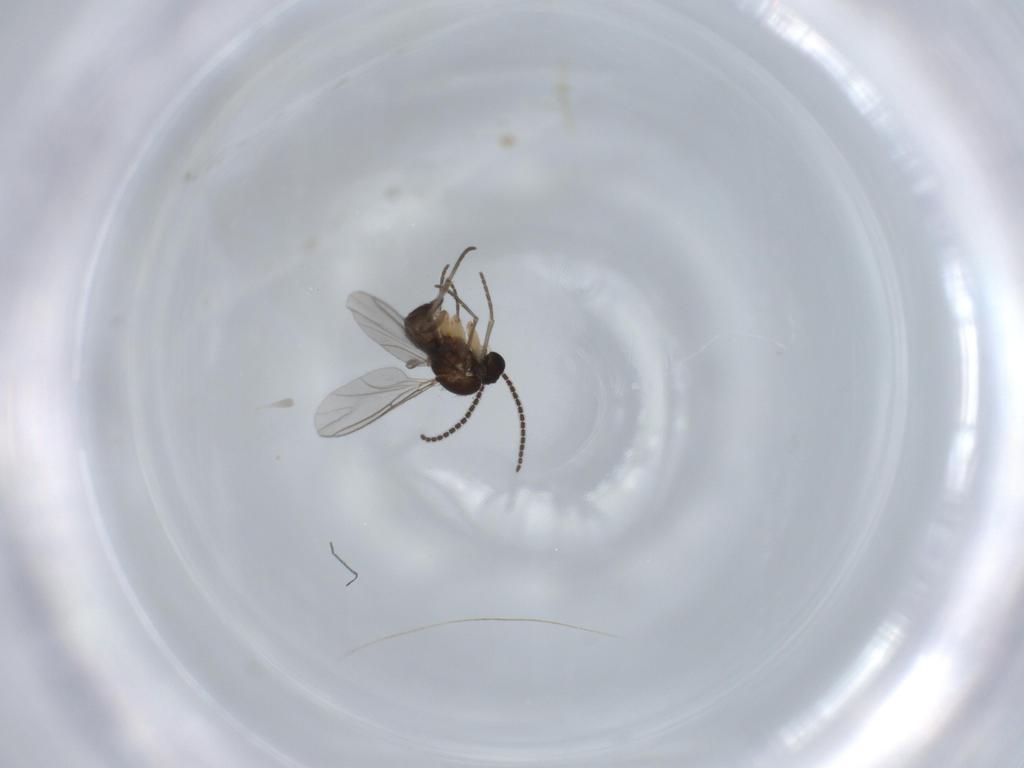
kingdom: Animalia
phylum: Arthropoda
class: Insecta
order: Diptera
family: Sciaridae
